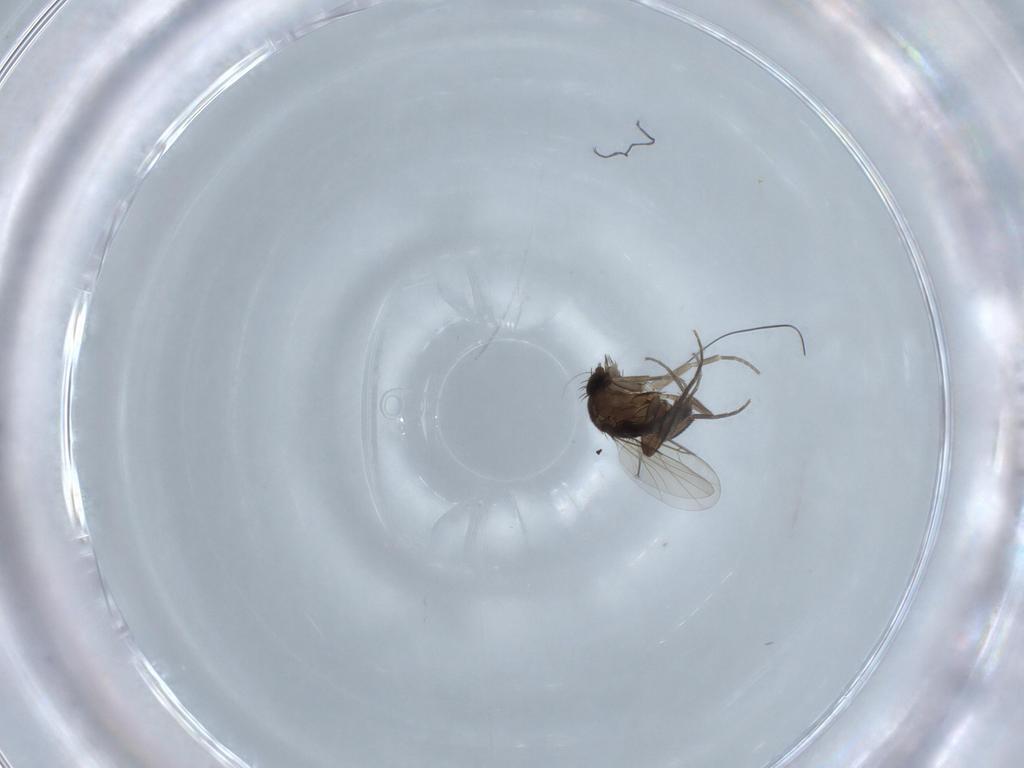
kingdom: Animalia
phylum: Arthropoda
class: Insecta
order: Diptera
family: Phoridae
